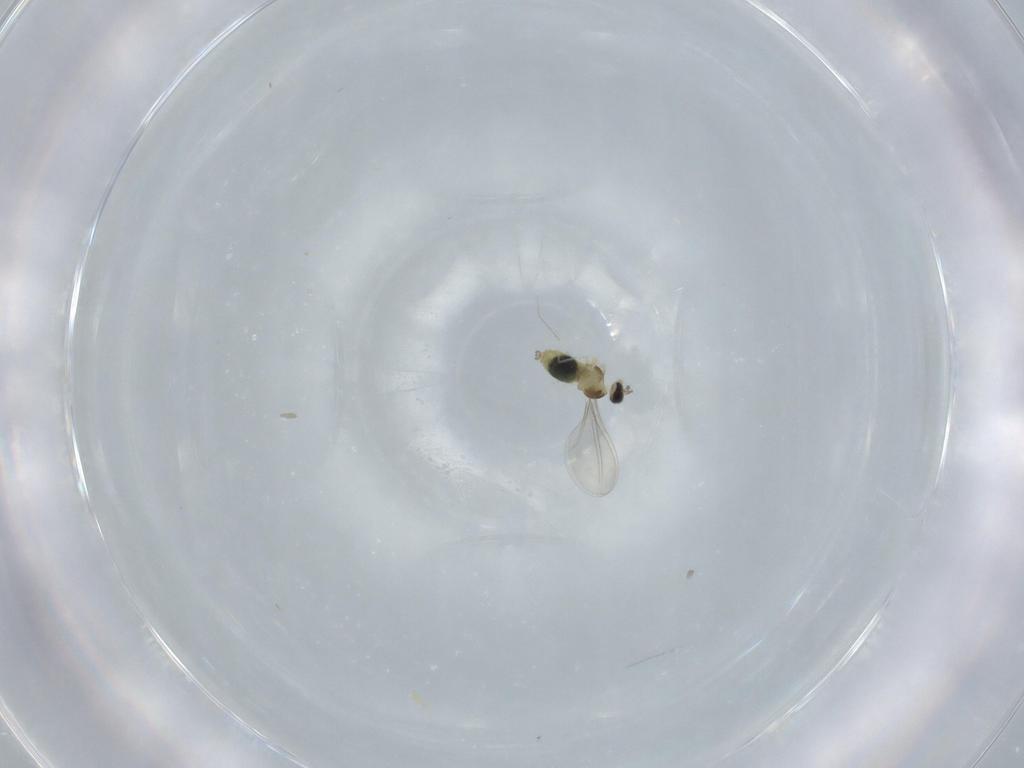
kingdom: Animalia
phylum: Arthropoda
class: Insecta
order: Diptera
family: Cecidomyiidae
